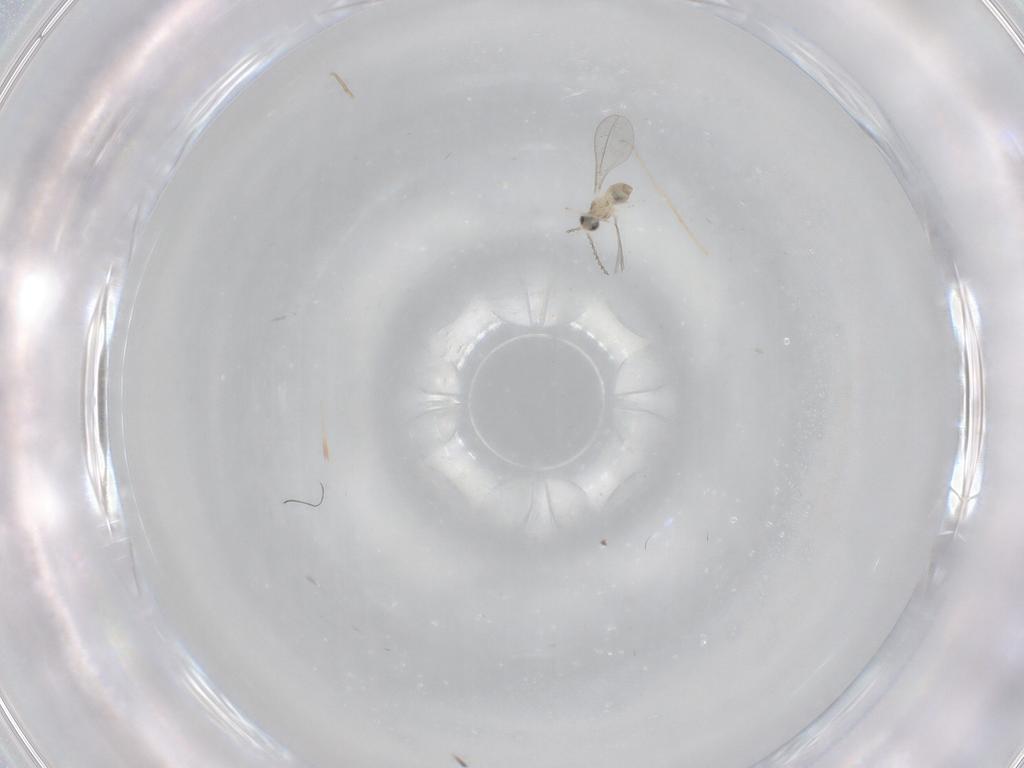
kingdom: Animalia
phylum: Arthropoda
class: Insecta
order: Diptera
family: Cecidomyiidae
